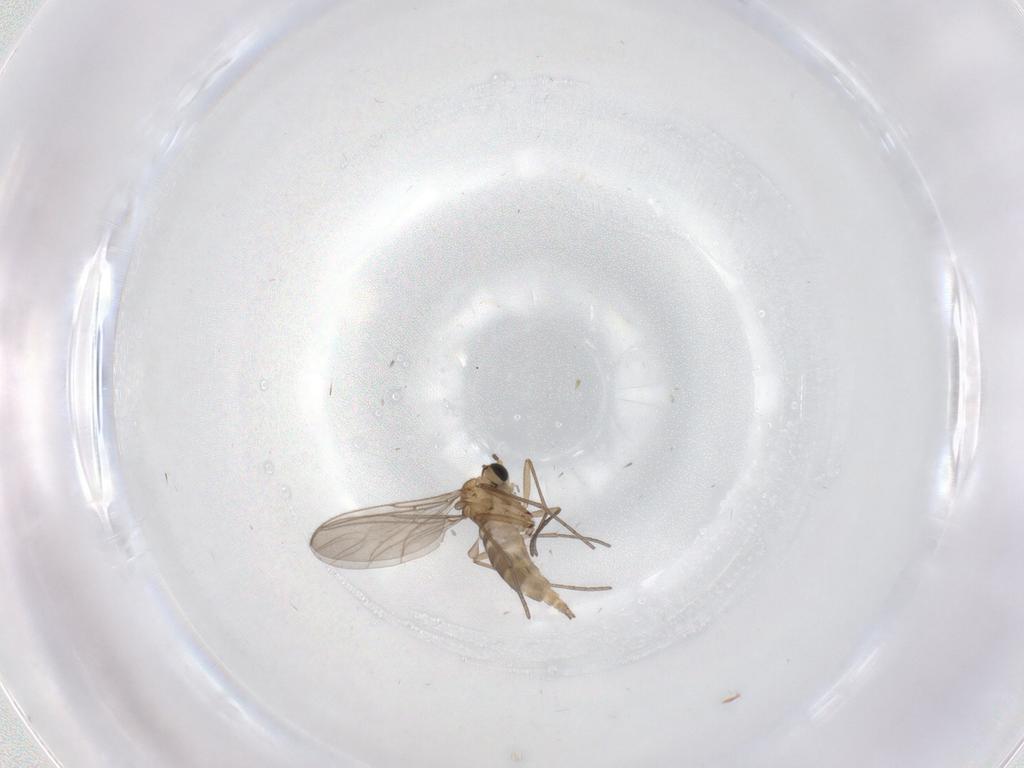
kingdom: Animalia
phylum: Arthropoda
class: Insecta
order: Diptera
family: Sciaridae
